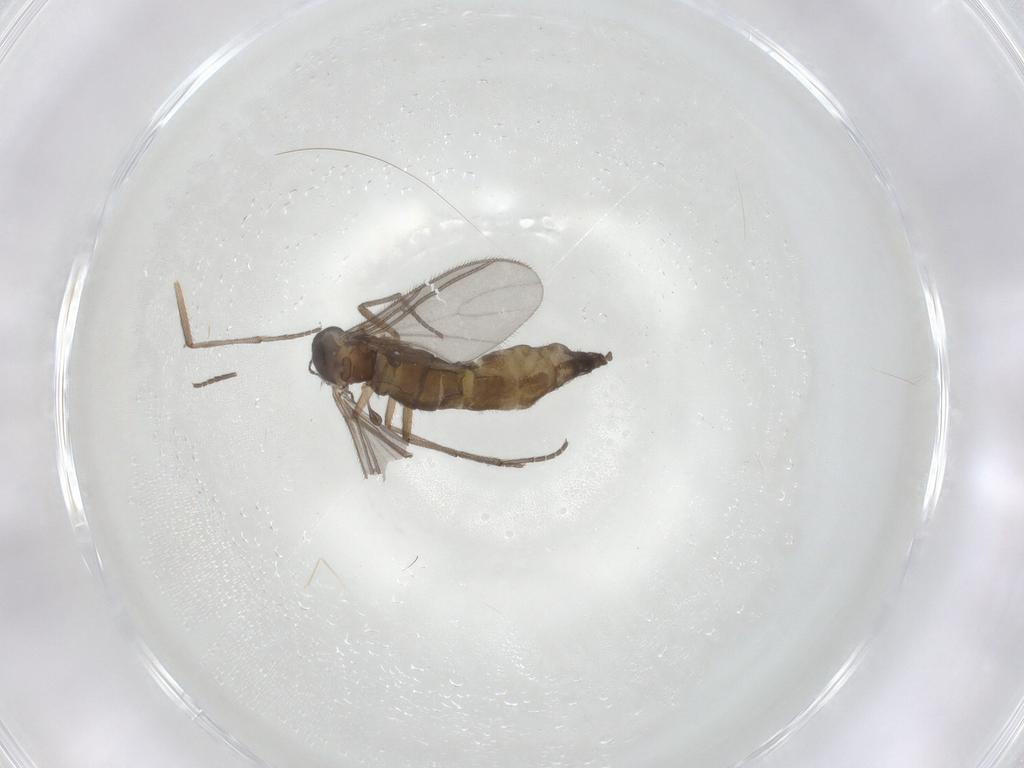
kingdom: Animalia
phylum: Arthropoda
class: Insecta
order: Diptera
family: Sciaridae
